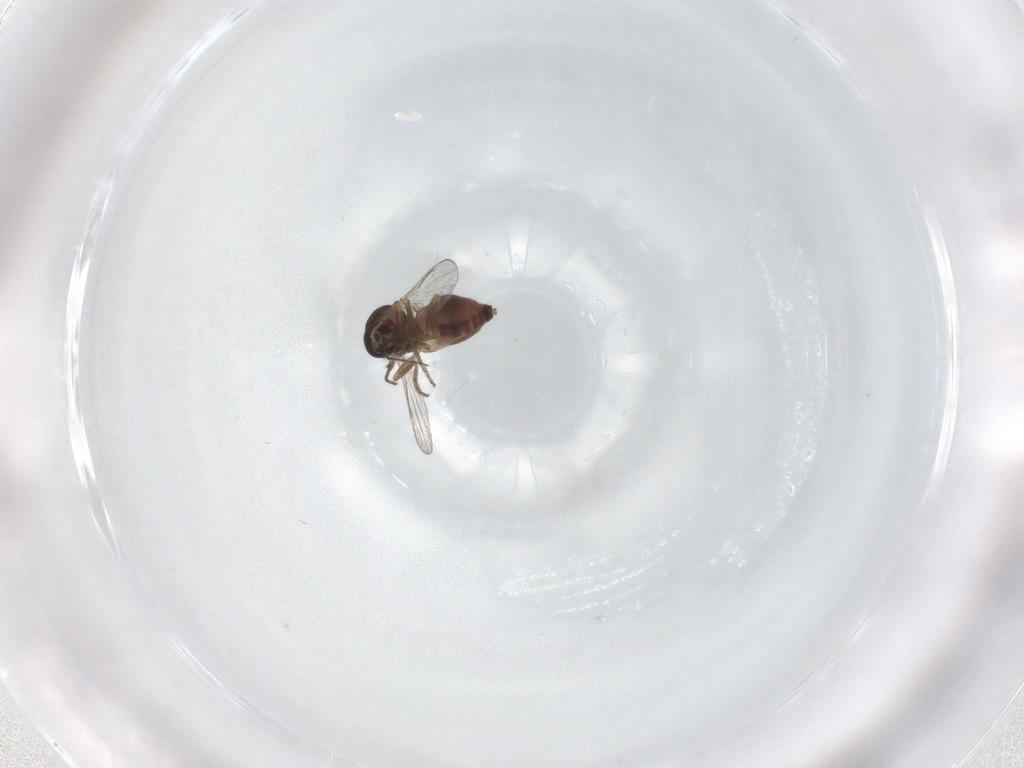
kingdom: Animalia
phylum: Arthropoda
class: Insecta
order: Diptera
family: Ceratopogonidae
